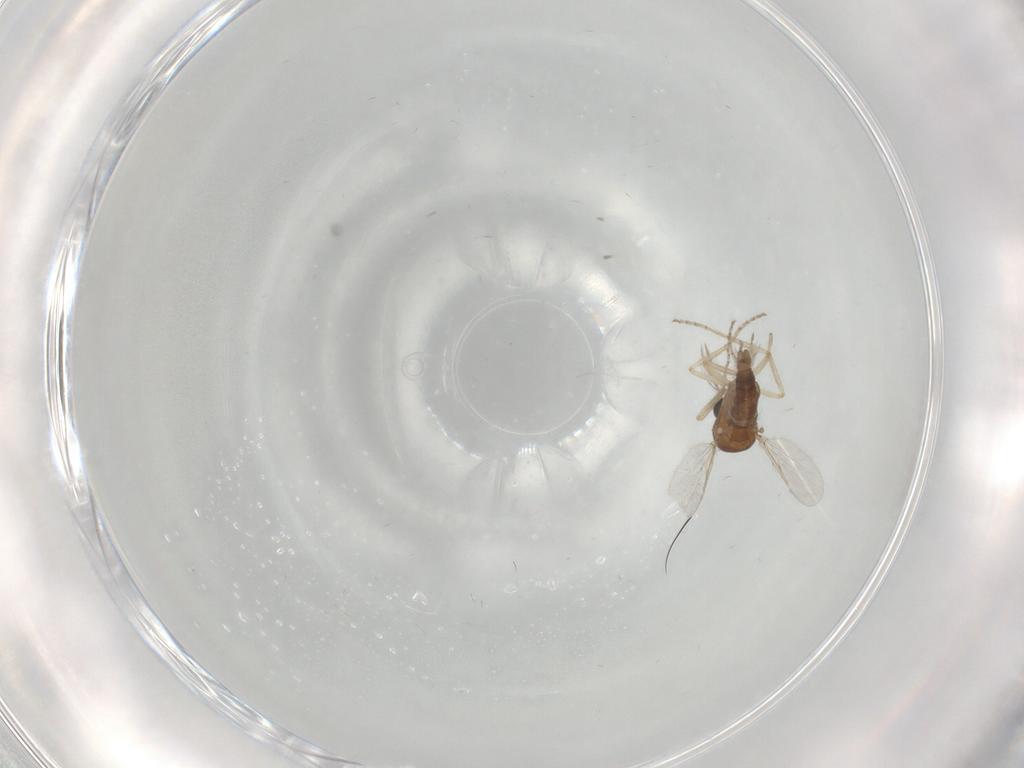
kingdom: Animalia
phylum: Arthropoda
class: Insecta
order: Diptera
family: Ceratopogonidae
